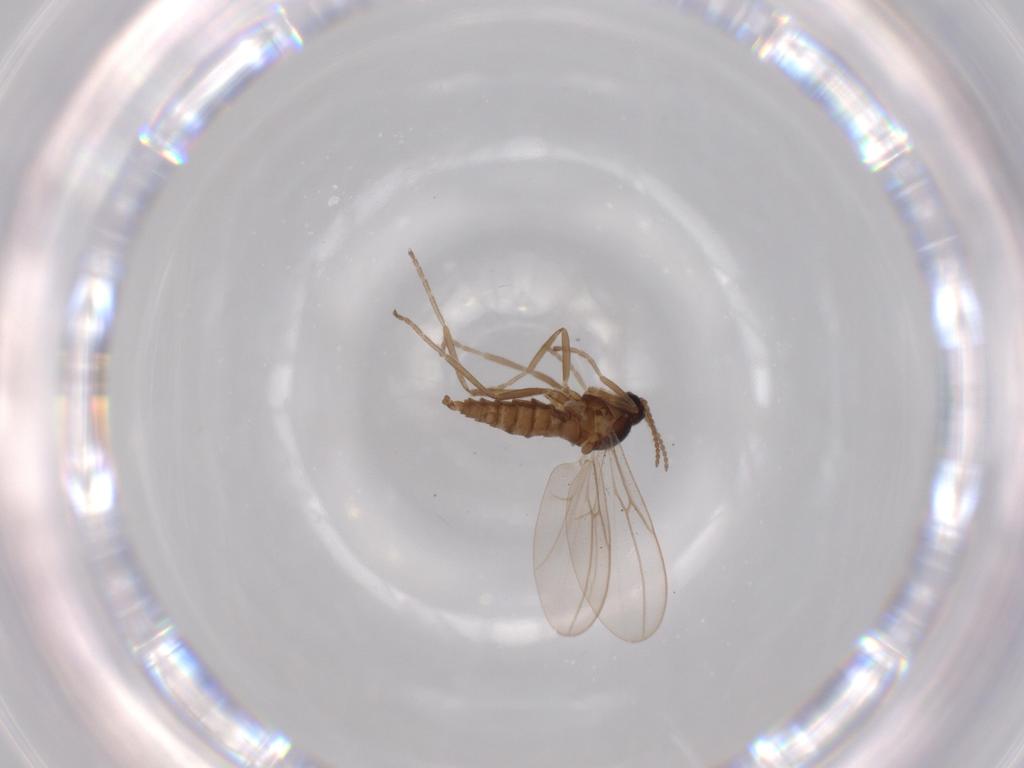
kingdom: Animalia
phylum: Arthropoda
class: Insecta
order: Diptera
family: Cecidomyiidae
